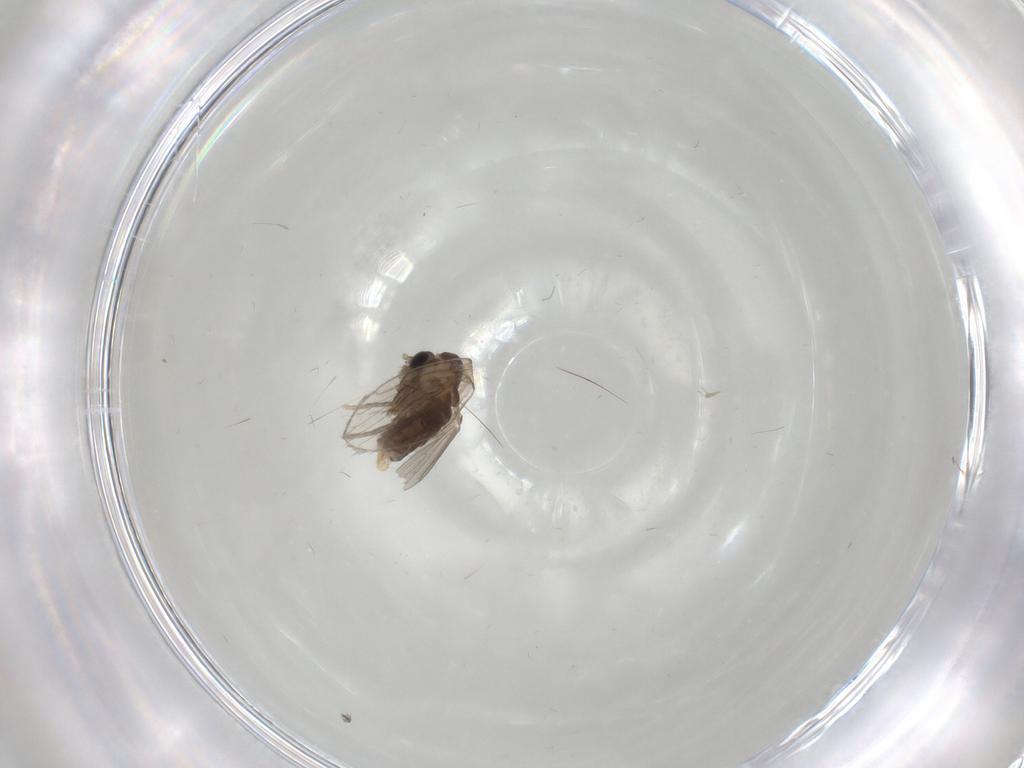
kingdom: Animalia
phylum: Arthropoda
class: Insecta
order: Diptera
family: Psychodidae
